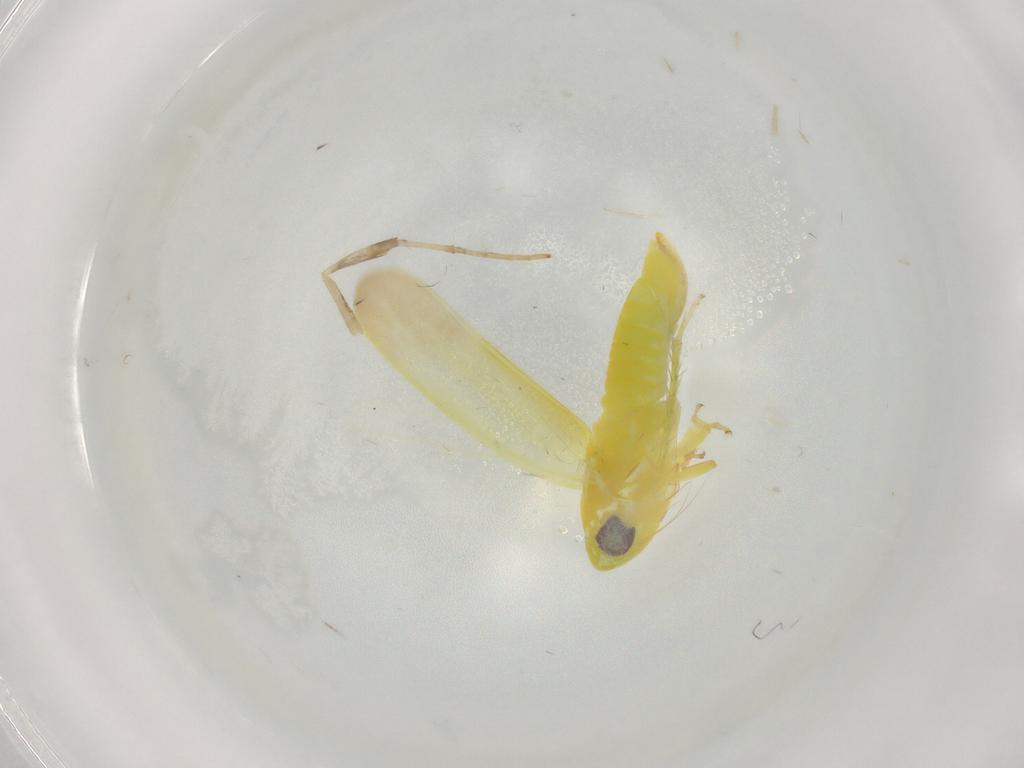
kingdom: Animalia
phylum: Arthropoda
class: Insecta
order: Hemiptera
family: Cicadellidae
